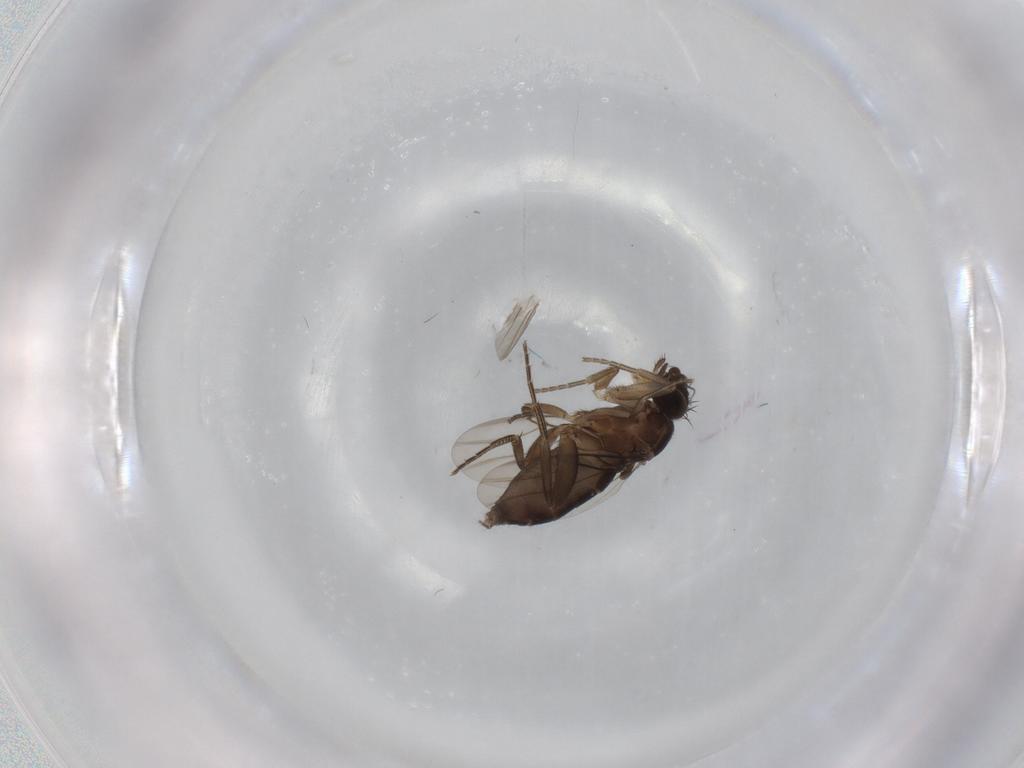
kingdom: Animalia
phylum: Arthropoda
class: Insecta
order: Diptera
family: Phoridae
